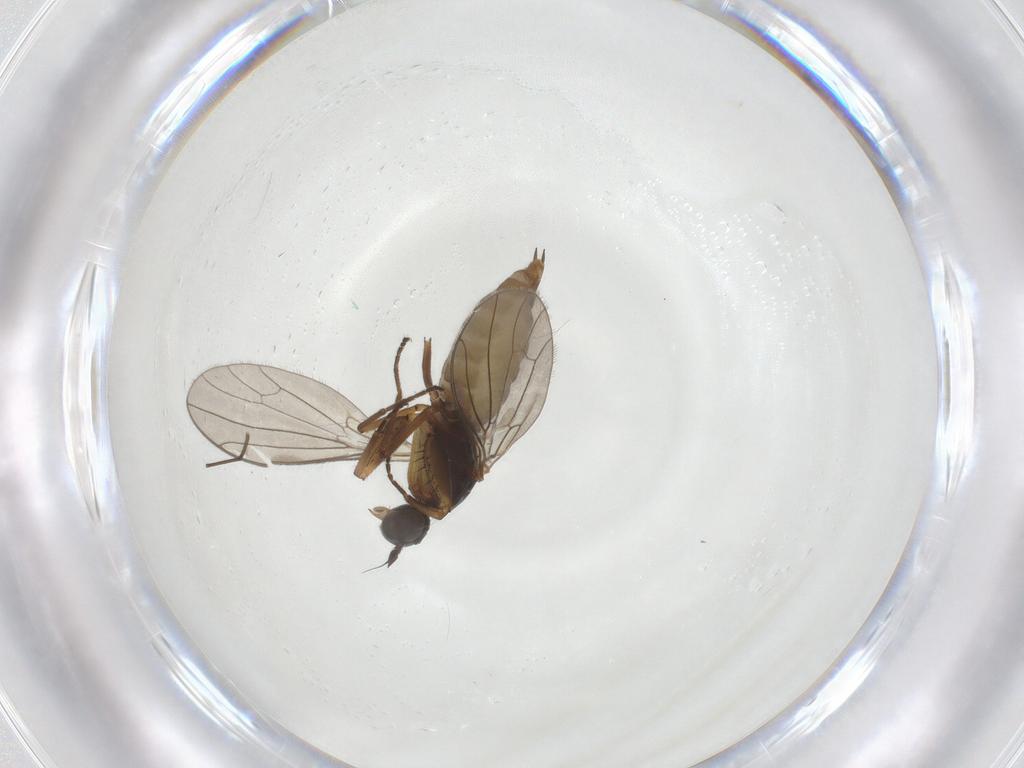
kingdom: Animalia
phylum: Arthropoda
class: Insecta
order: Diptera
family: Empididae
